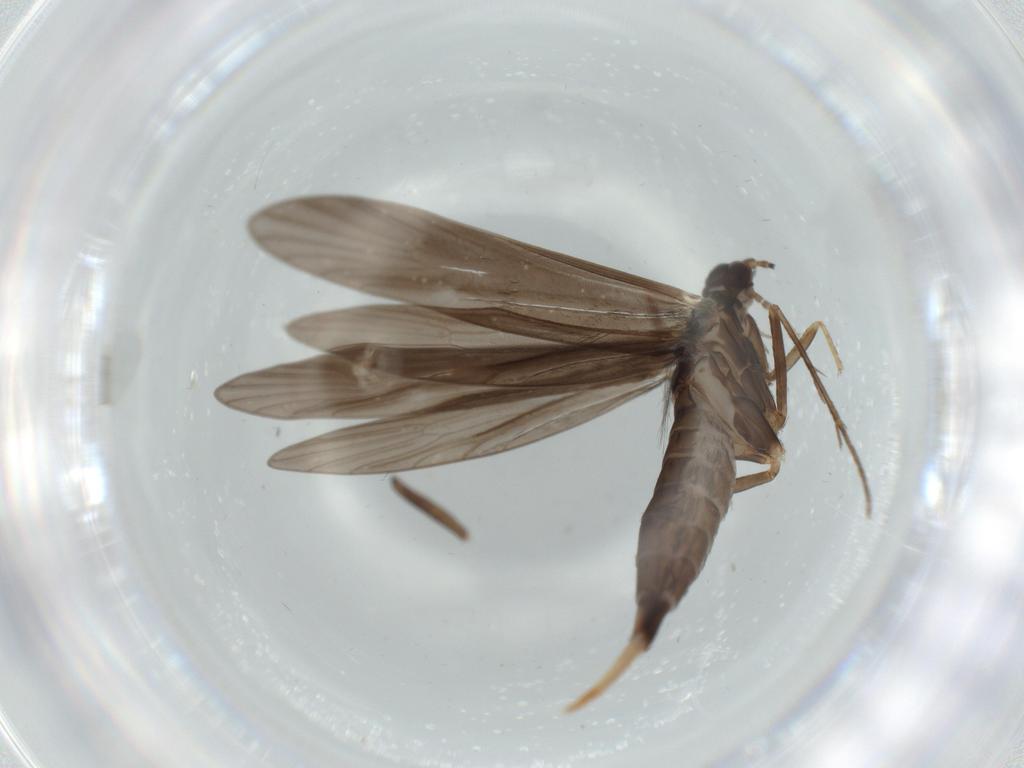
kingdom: Animalia
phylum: Arthropoda
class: Insecta
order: Trichoptera
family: Xiphocentronidae
